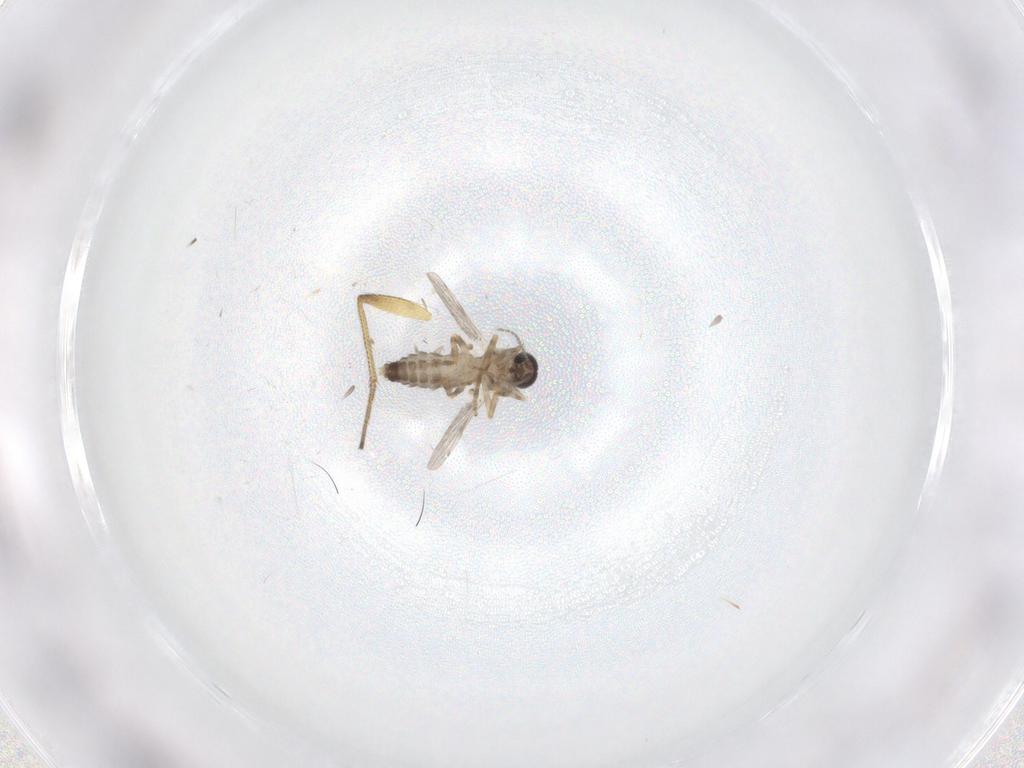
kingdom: Animalia
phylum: Arthropoda
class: Insecta
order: Diptera
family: Dolichopodidae
